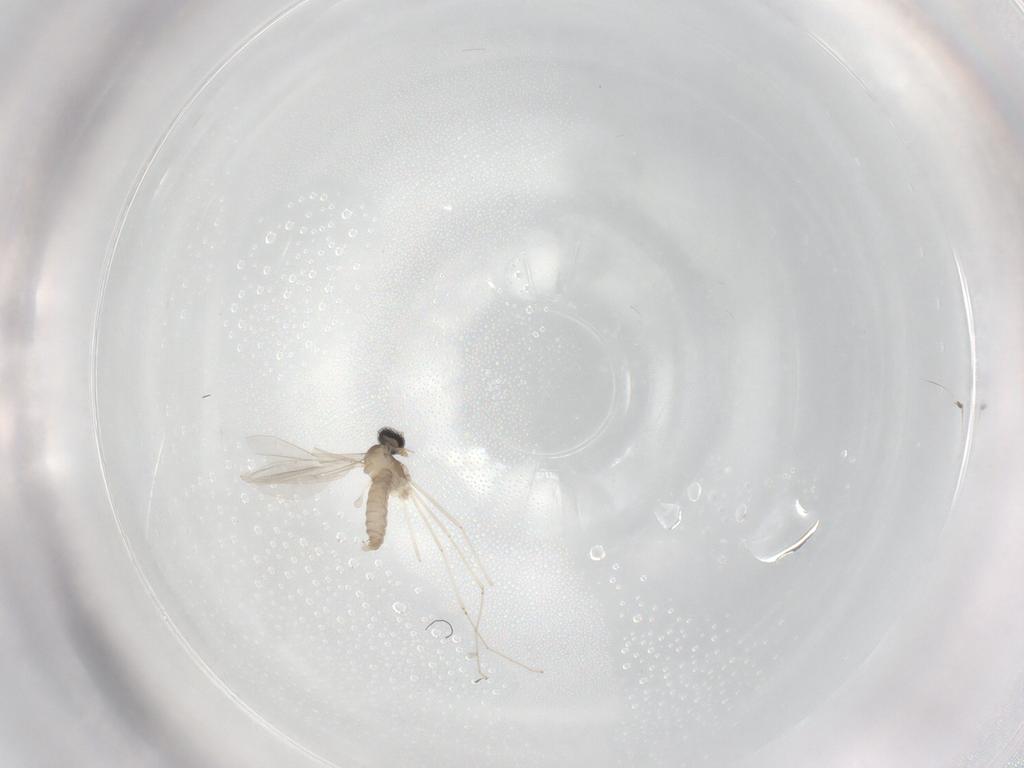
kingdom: Animalia
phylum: Arthropoda
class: Insecta
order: Diptera
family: Cecidomyiidae
